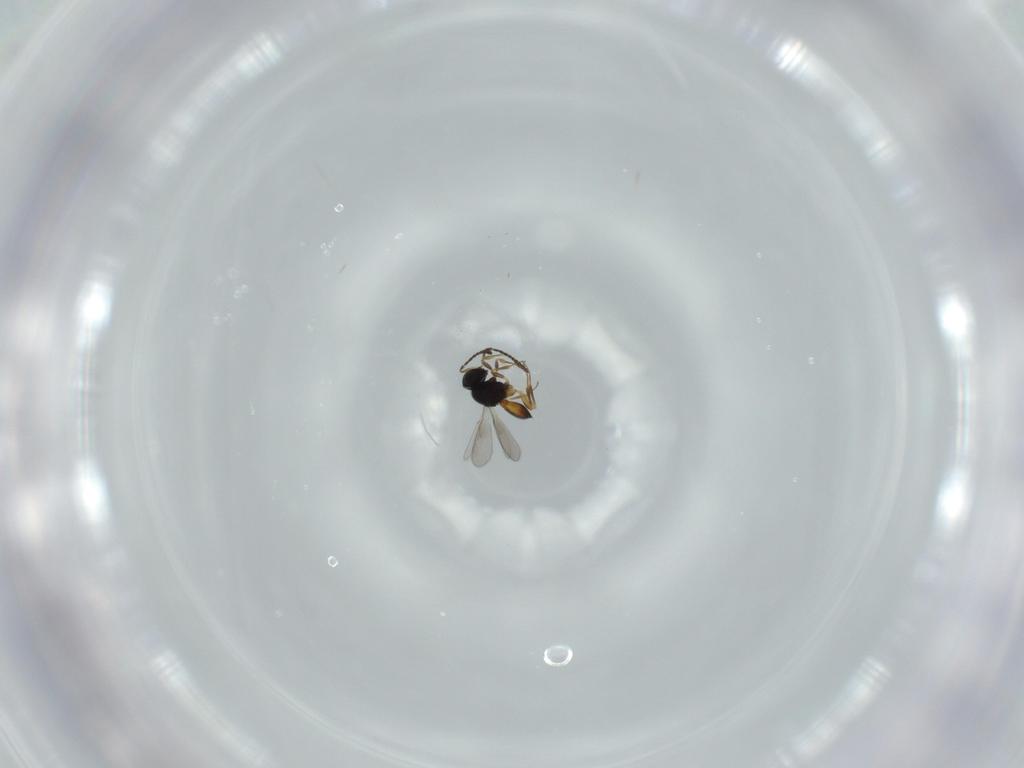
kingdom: Animalia
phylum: Arthropoda
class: Insecta
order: Hymenoptera
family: Scelionidae
